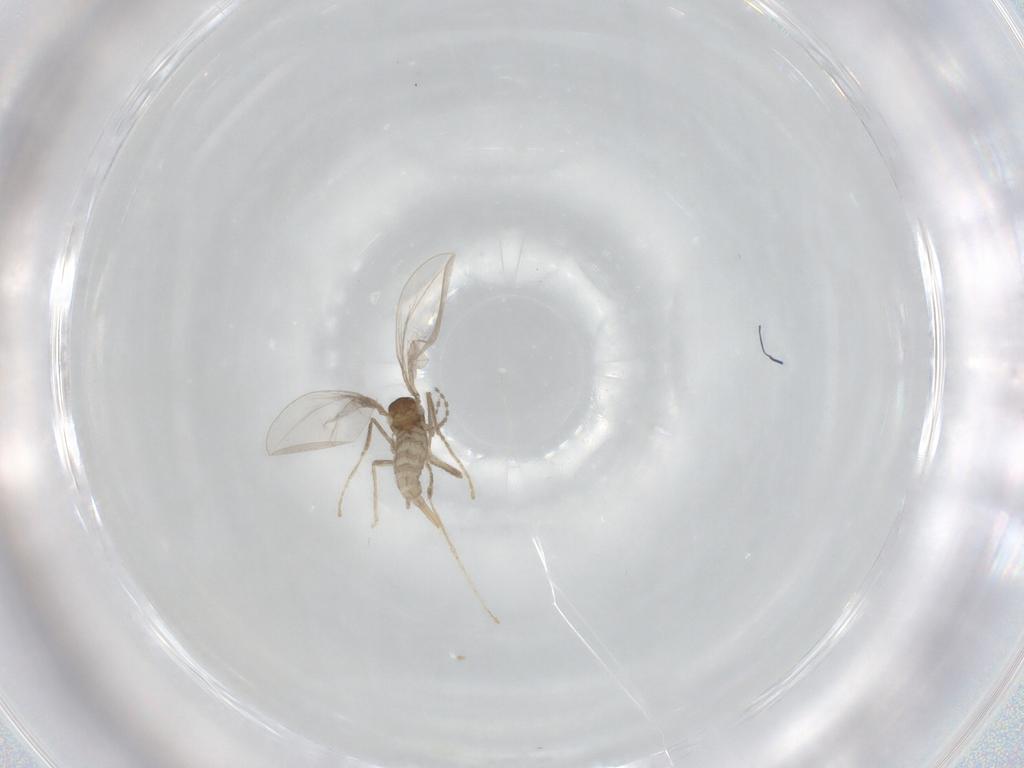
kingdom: Animalia
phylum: Arthropoda
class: Insecta
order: Diptera
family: Cecidomyiidae
